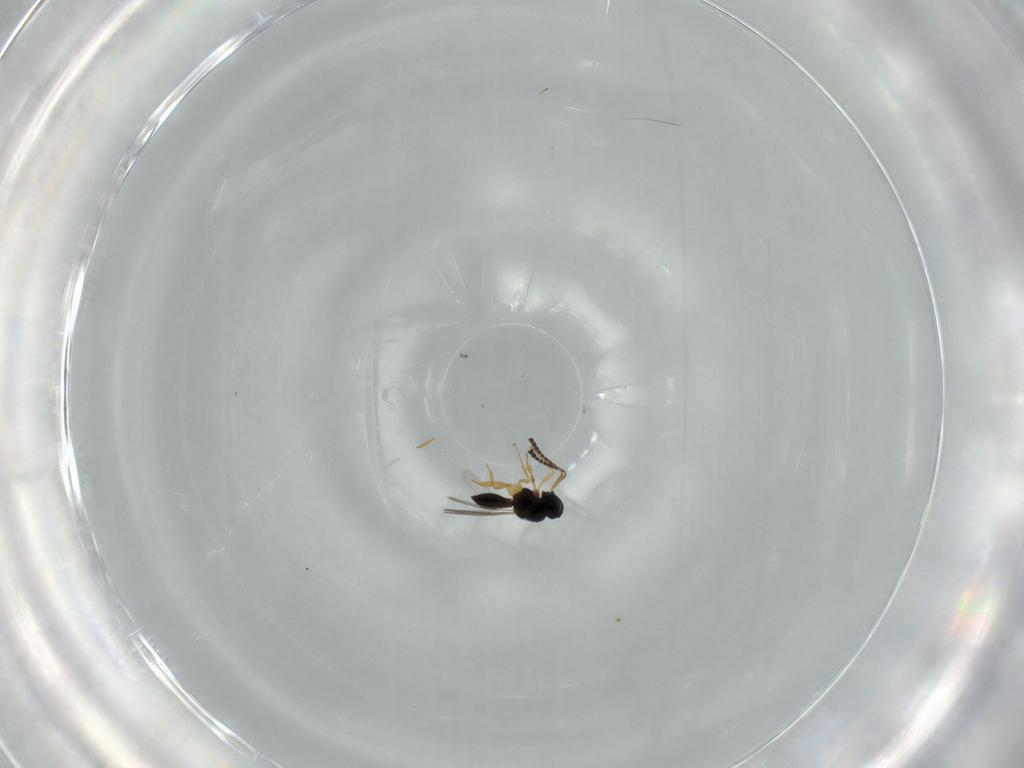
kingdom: Animalia
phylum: Arthropoda
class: Insecta
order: Hymenoptera
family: Scelionidae
